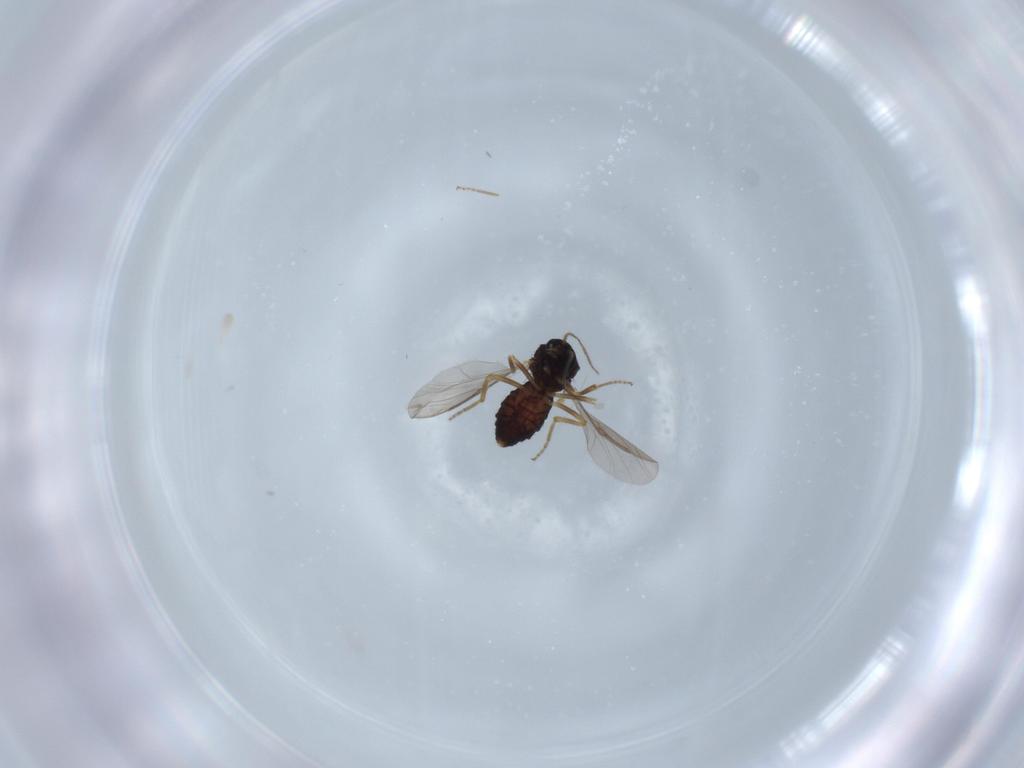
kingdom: Animalia
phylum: Arthropoda
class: Insecta
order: Diptera
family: Ceratopogonidae
